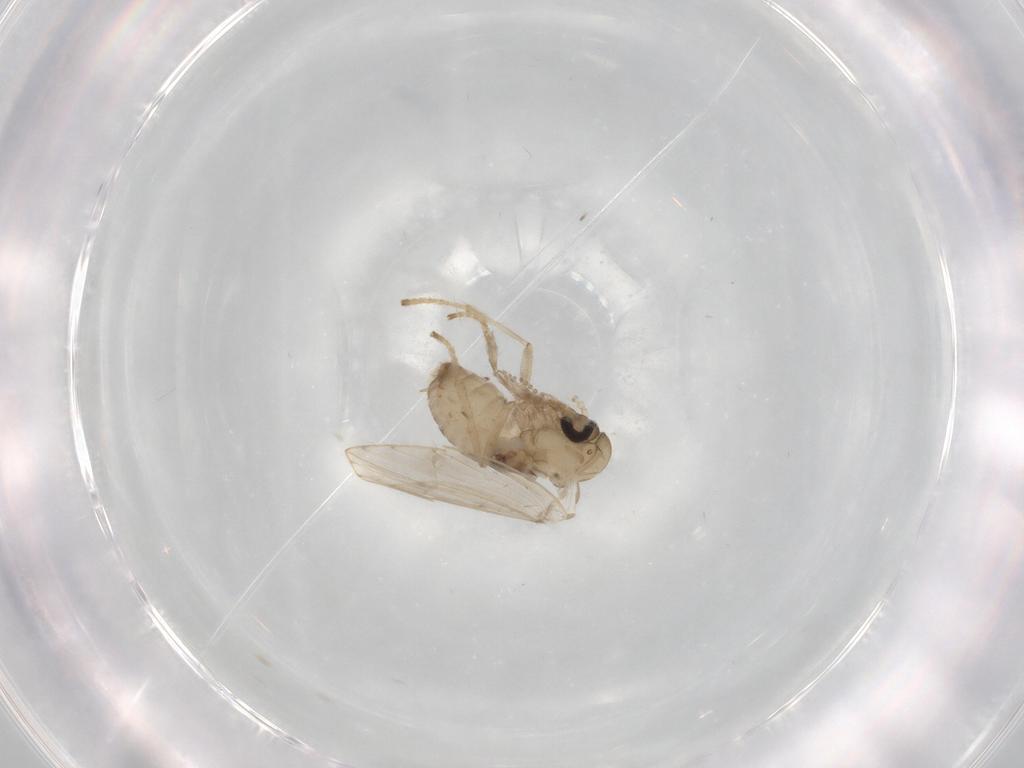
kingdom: Animalia
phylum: Arthropoda
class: Insecta
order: Diptera
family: Psychodidae
